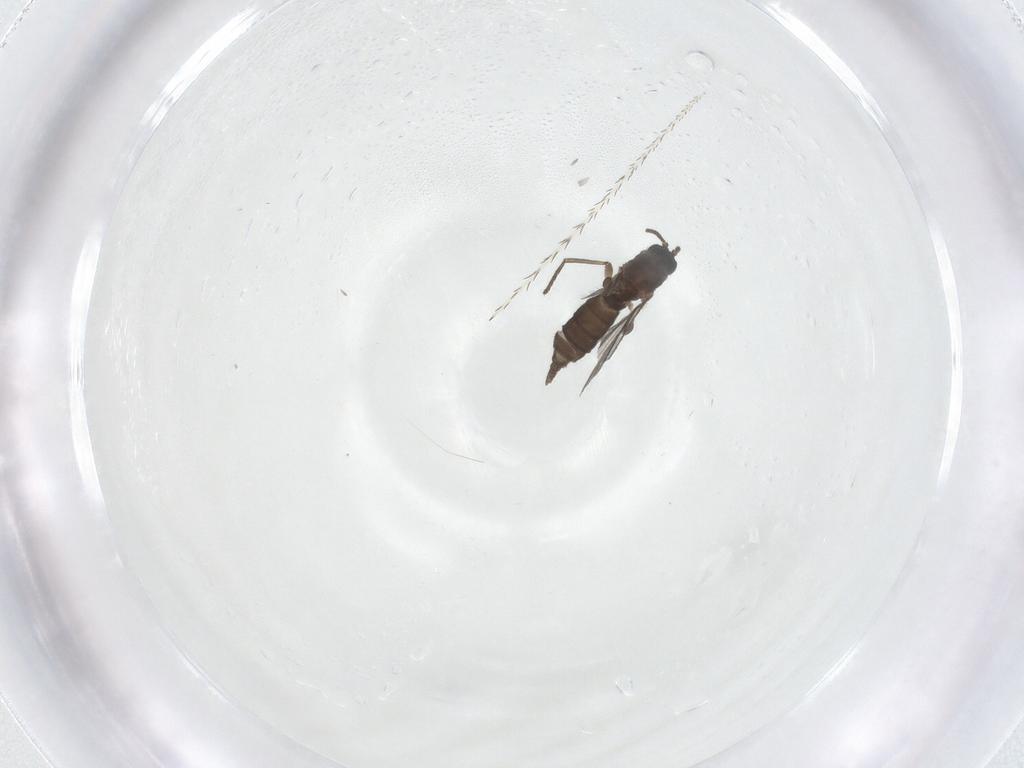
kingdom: Animalia
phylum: Arthropoda
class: Insecta
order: Diptera
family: Sciaridae
